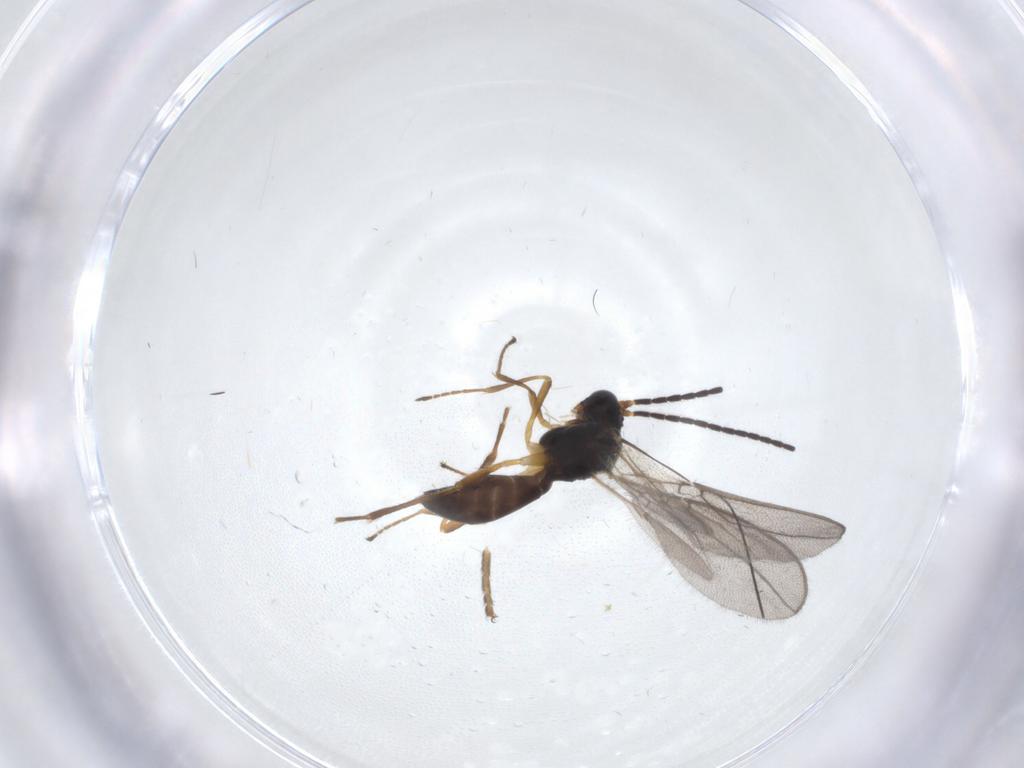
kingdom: Animalia
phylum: Arthropoda
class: Insecta
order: Hymenoptera
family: Braconidae
